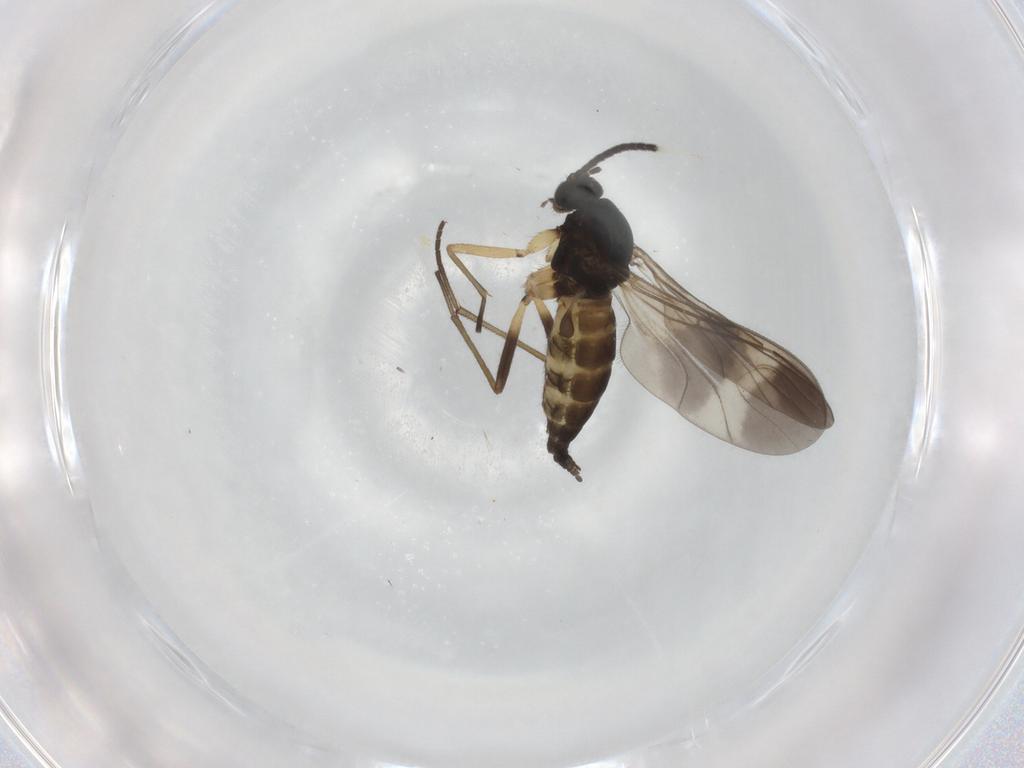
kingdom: Animalia
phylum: Arthropoda
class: Insecta
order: Diptera
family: Sciaridae
